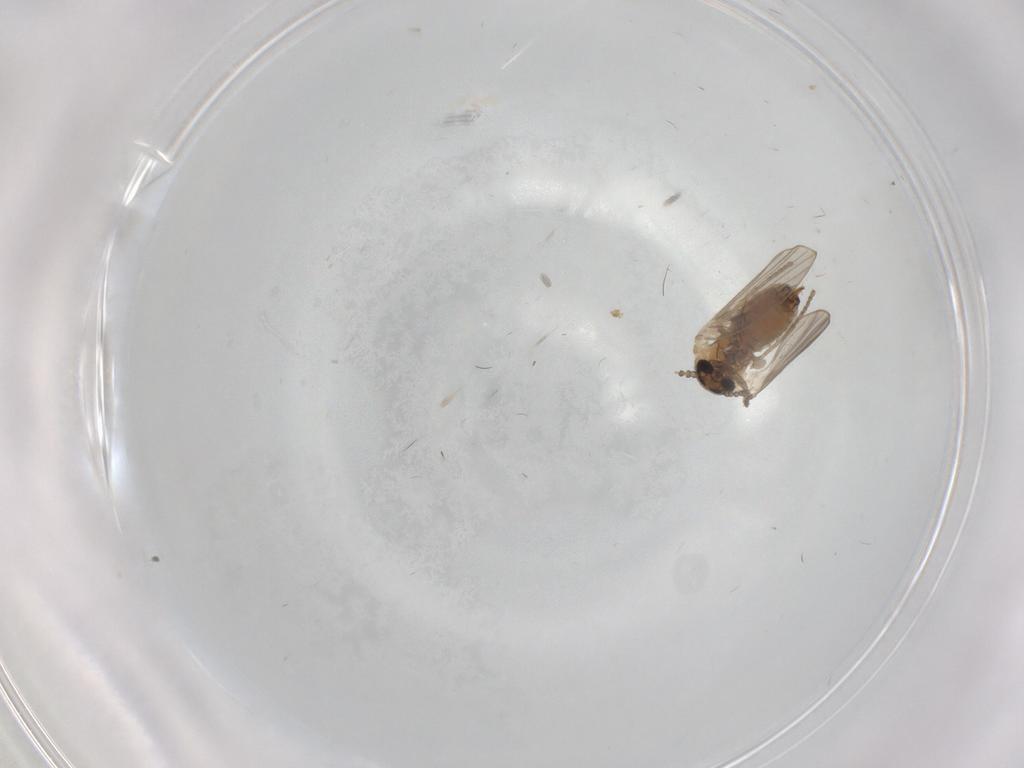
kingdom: Animalia
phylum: Arthropoda
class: Insecta
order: Diptera
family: Psychodidae
